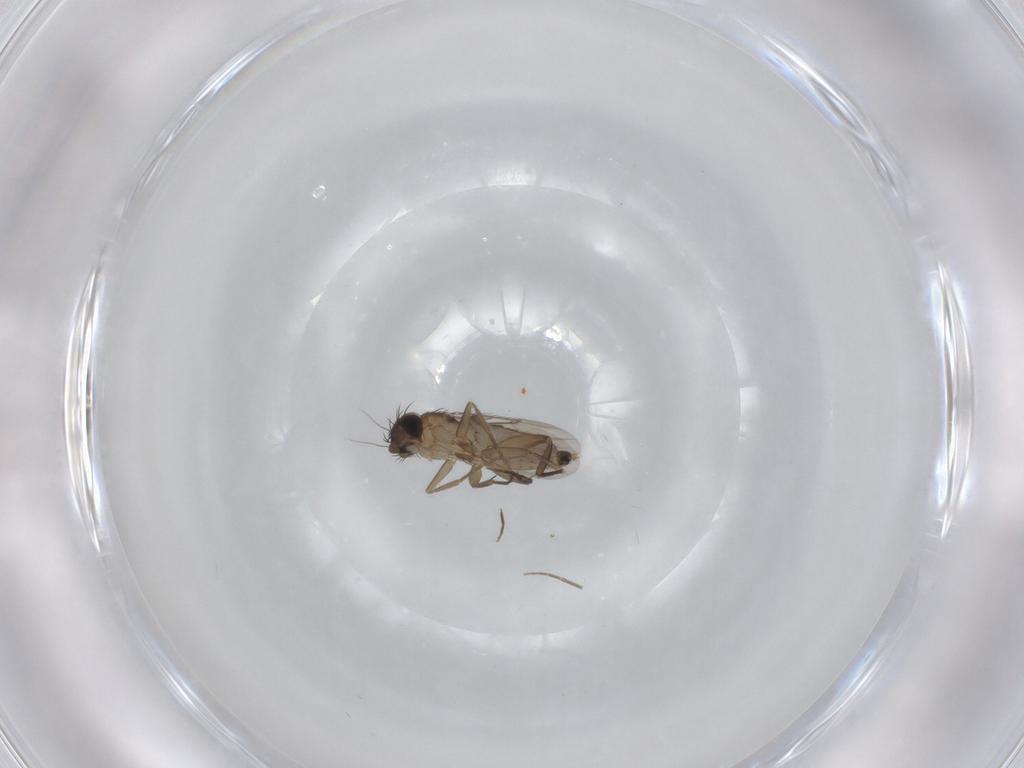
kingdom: Animalia
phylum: Arthropoda
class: Insecta
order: Diptera
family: Phoridae
